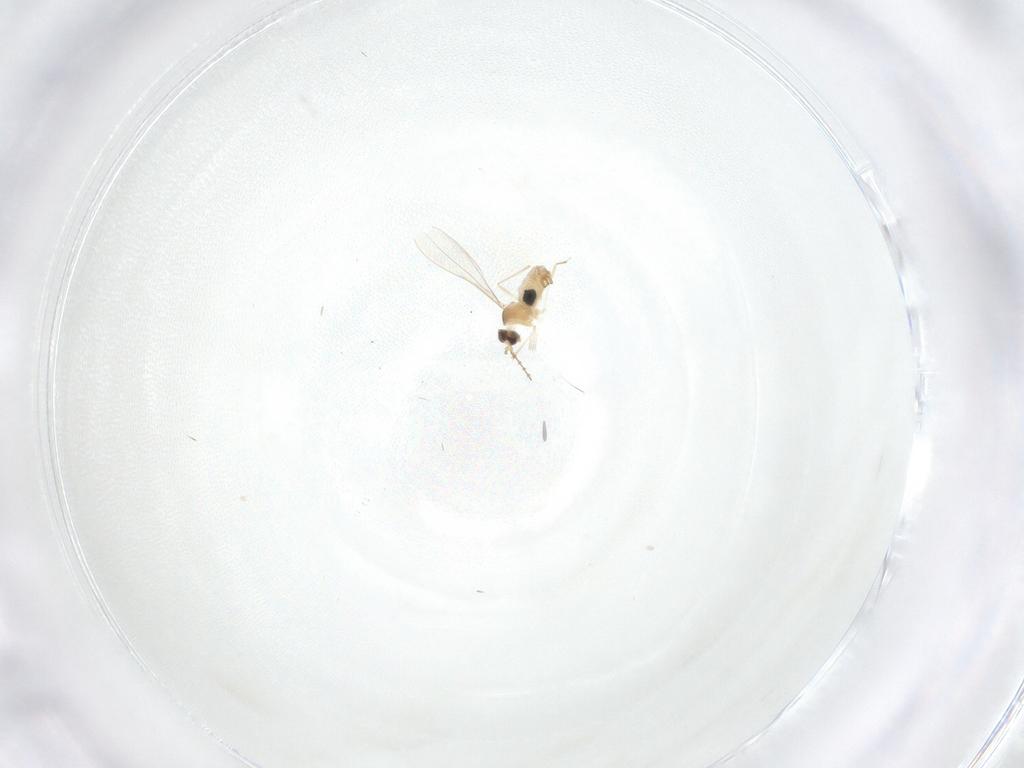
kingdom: Animalia
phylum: Arthropoda
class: Insecta
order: Diptera
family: Cecidomyiidae
